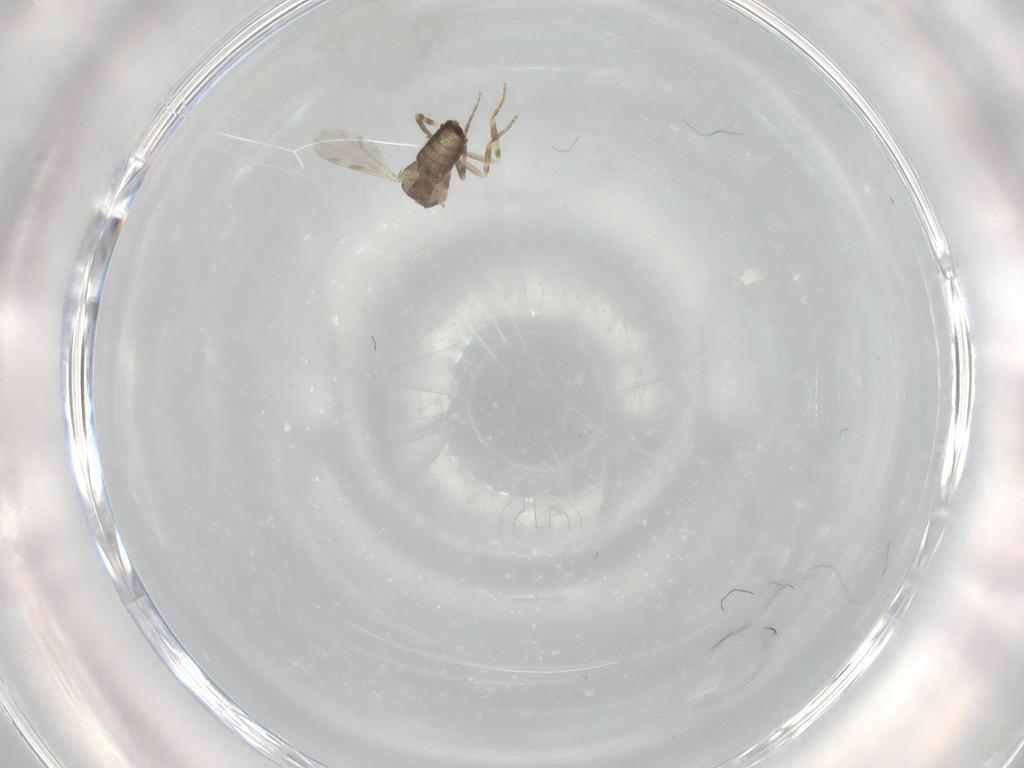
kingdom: Animalia
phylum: Arthropoda
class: Insecta
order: Diptera
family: Ceratopogonidae
